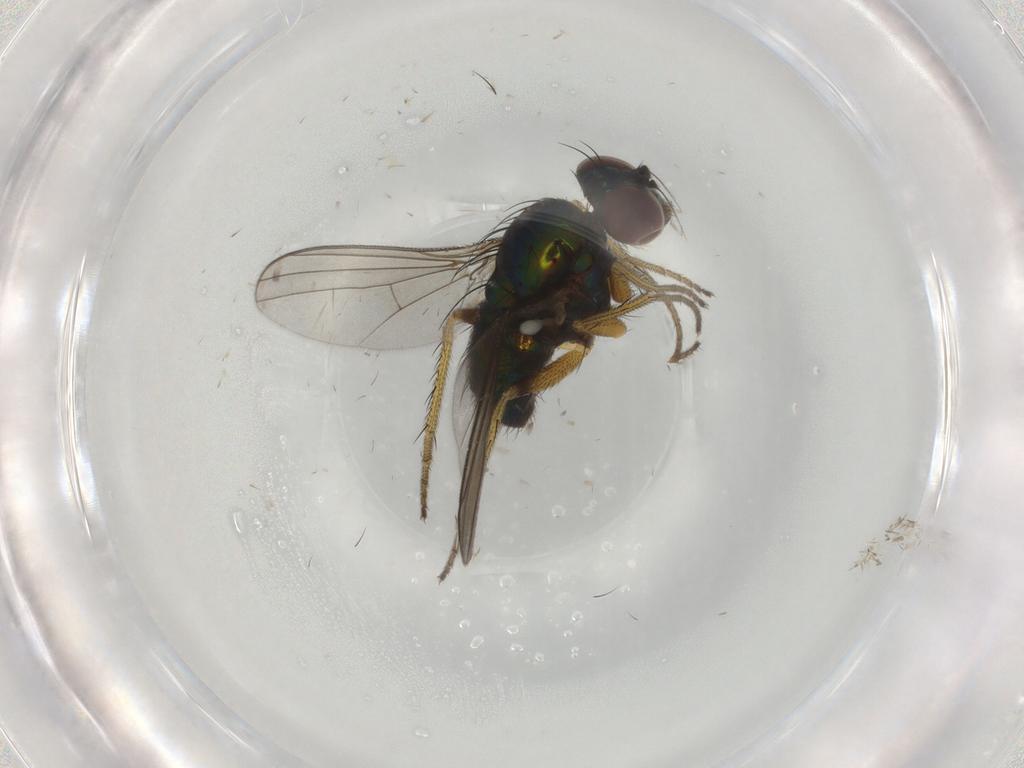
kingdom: Animalia
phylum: Arthropoda
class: Insecta
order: Diptera
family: Dolichopodidae
